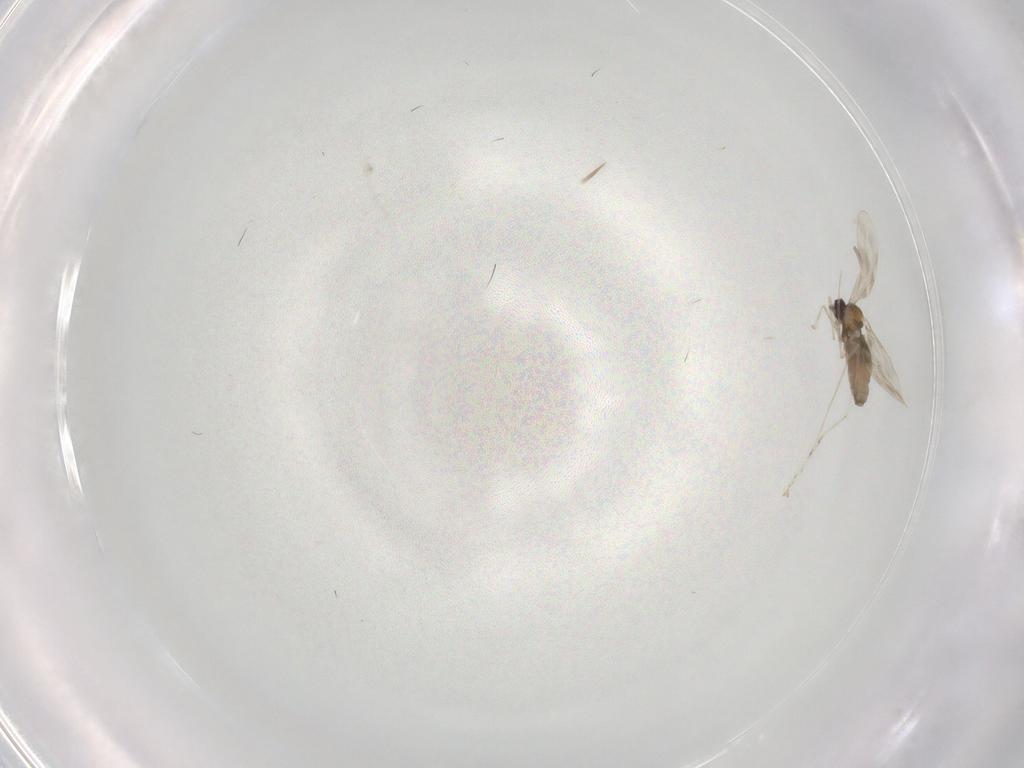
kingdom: Animalia
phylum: Arthropoda
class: Insecta
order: Diptera
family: Cecidomyiidae
